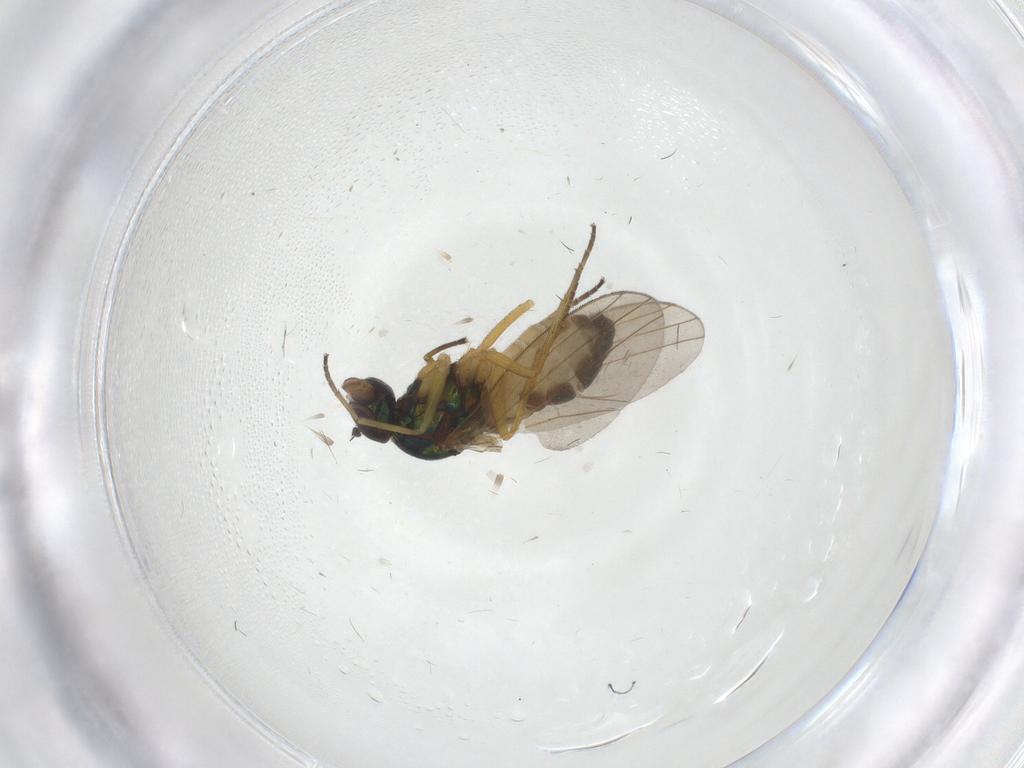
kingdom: Animalia
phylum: Arthropoda
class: Insecta
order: Diptera
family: Dolichopodidae
